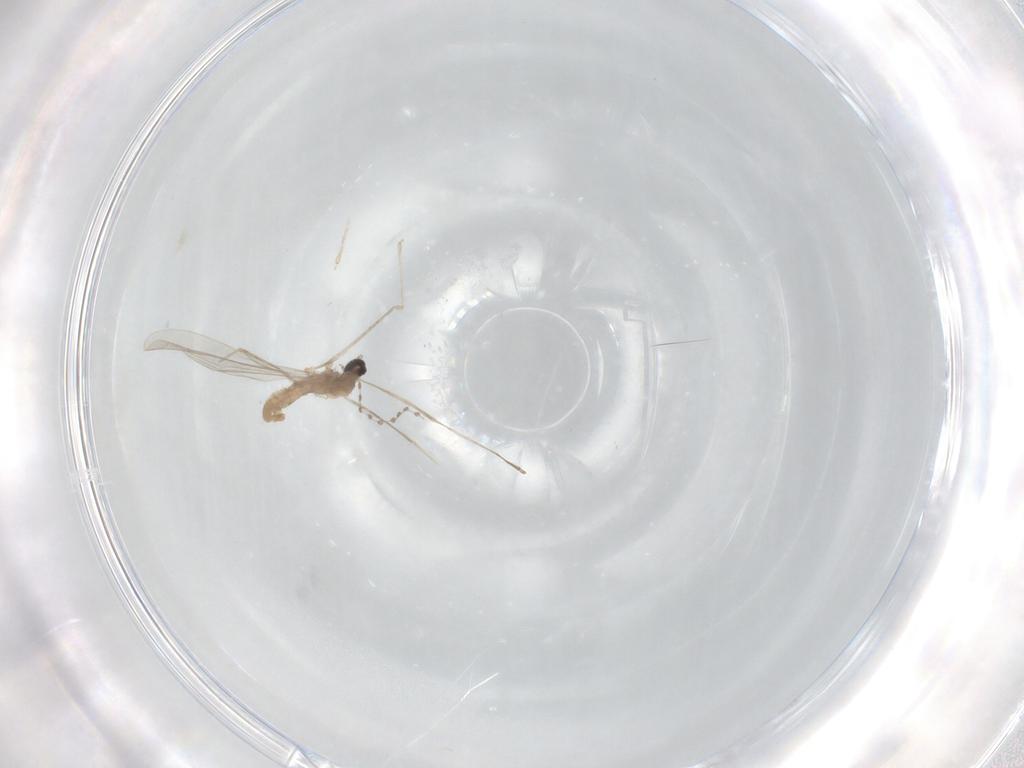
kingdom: Animalia
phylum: Arthropoda
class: Insecta
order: Diptera
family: Cecidomyiidae
